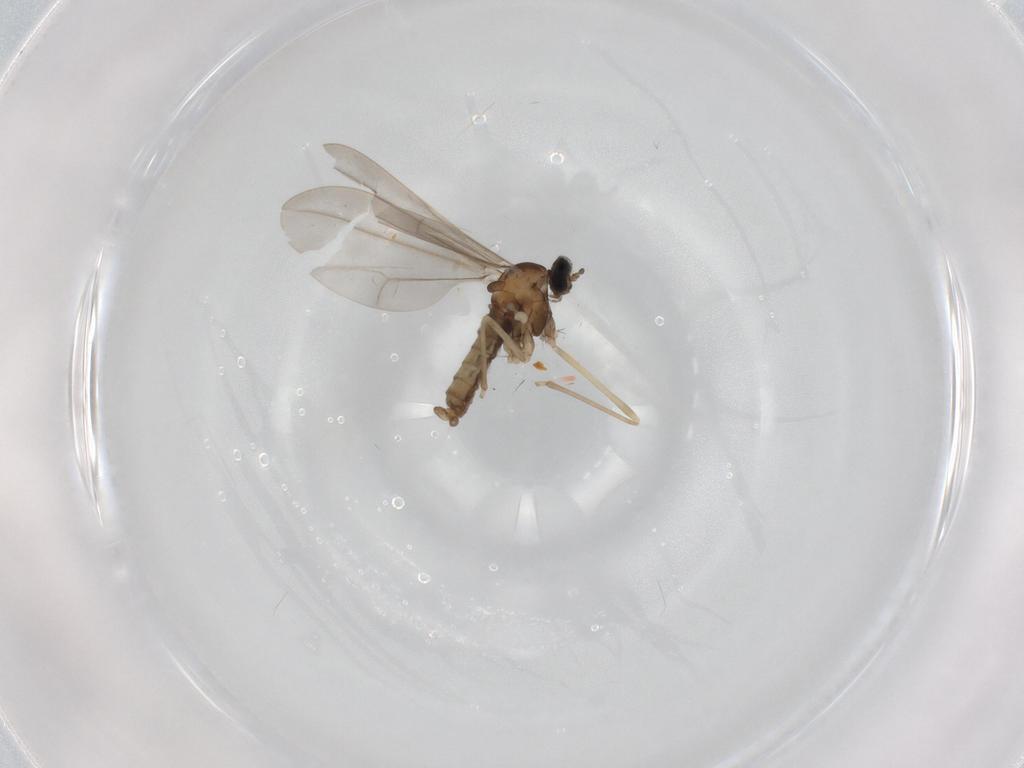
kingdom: Animalia
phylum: Arthropoda
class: Insecta
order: Diptera
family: Cecidomyiidae
